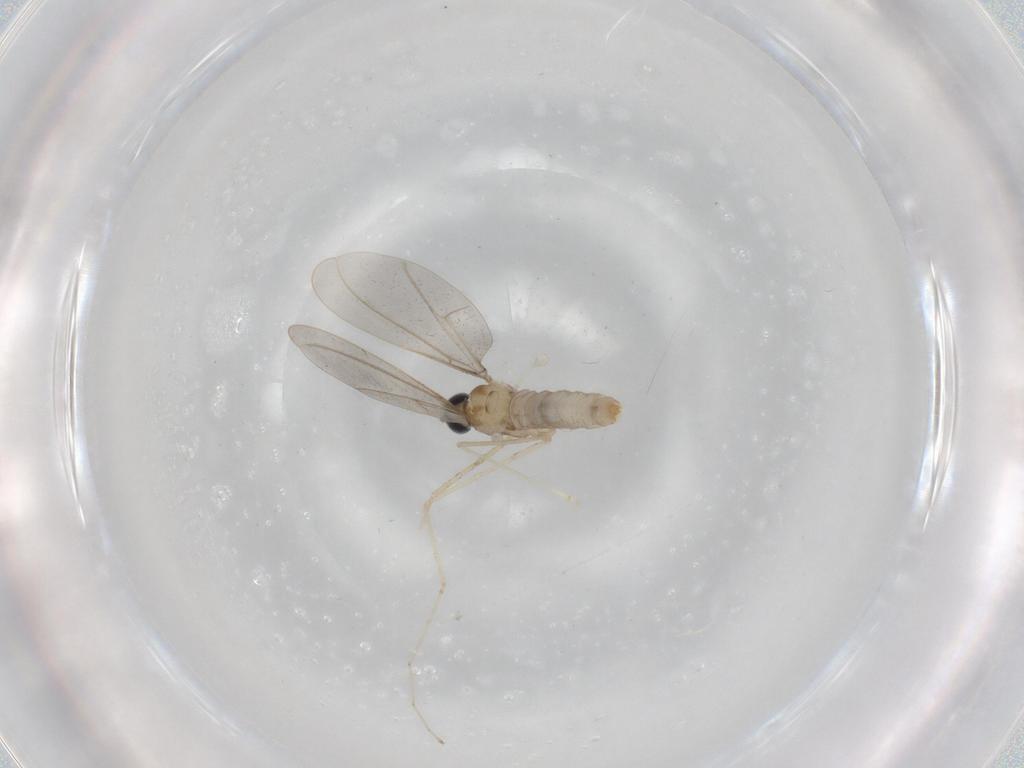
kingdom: Animalia
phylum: Arthropoda
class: Insecta
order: Diptera
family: Cecidomyiidae
